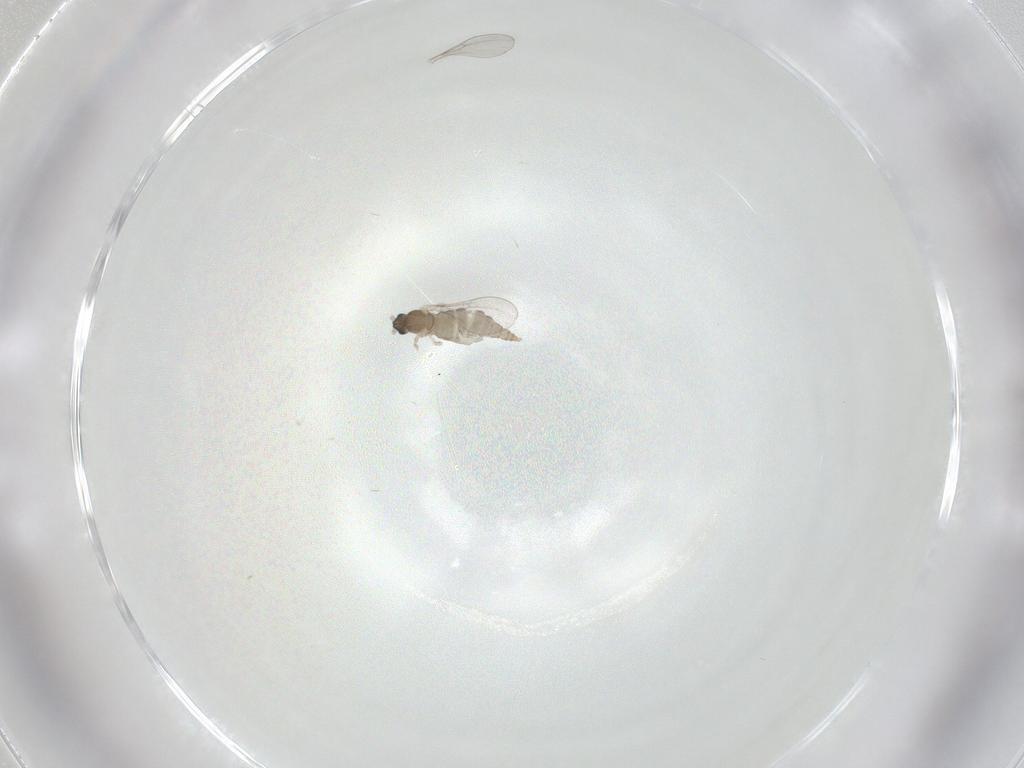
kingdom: Animalia
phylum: Arthropoda
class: Insecta
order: Diptera
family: Cecidomyiidae
